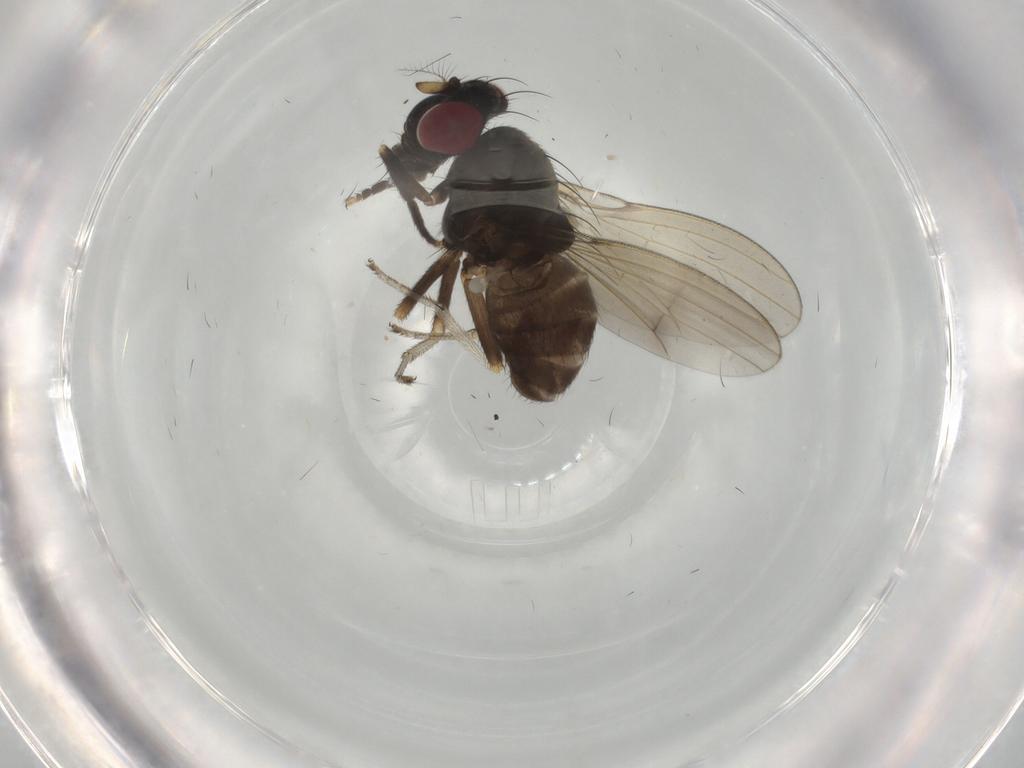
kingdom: Animalia
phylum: Arthropoda
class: Insecta
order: Diptera
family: Lauxaniidae
